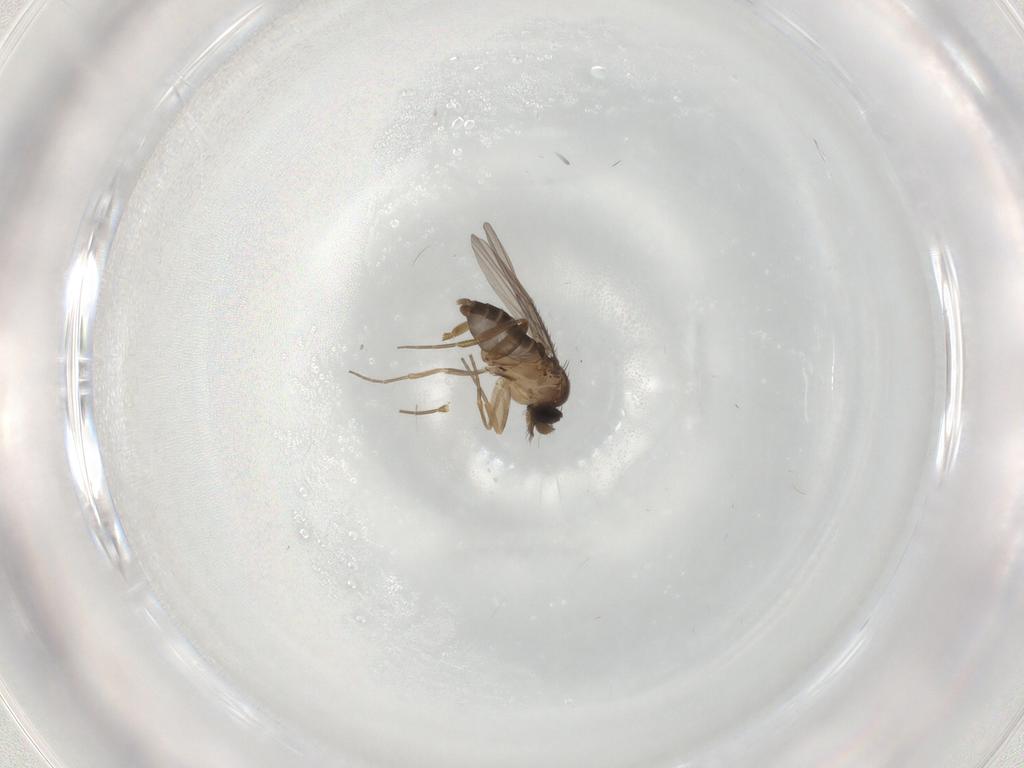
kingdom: Animalia
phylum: Arthropoda
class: Insecta
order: Diptera
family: Phoridae
